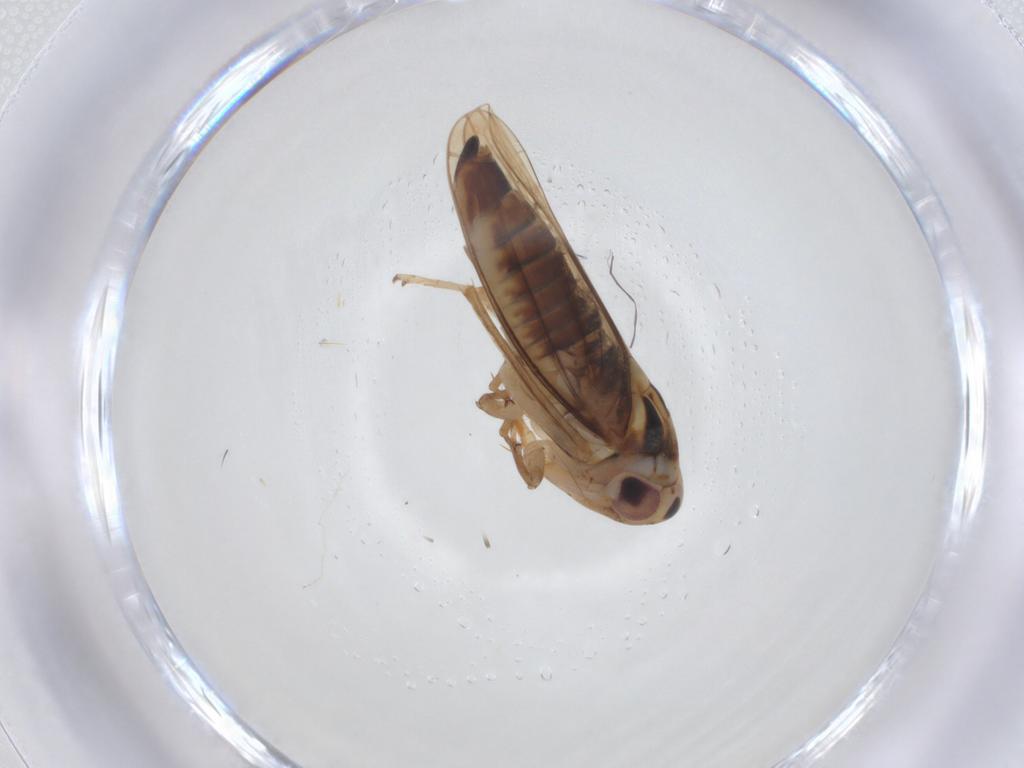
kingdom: Animalia
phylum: Arthropoda
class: Insecta
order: Hemiptera
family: Cicadellidae
